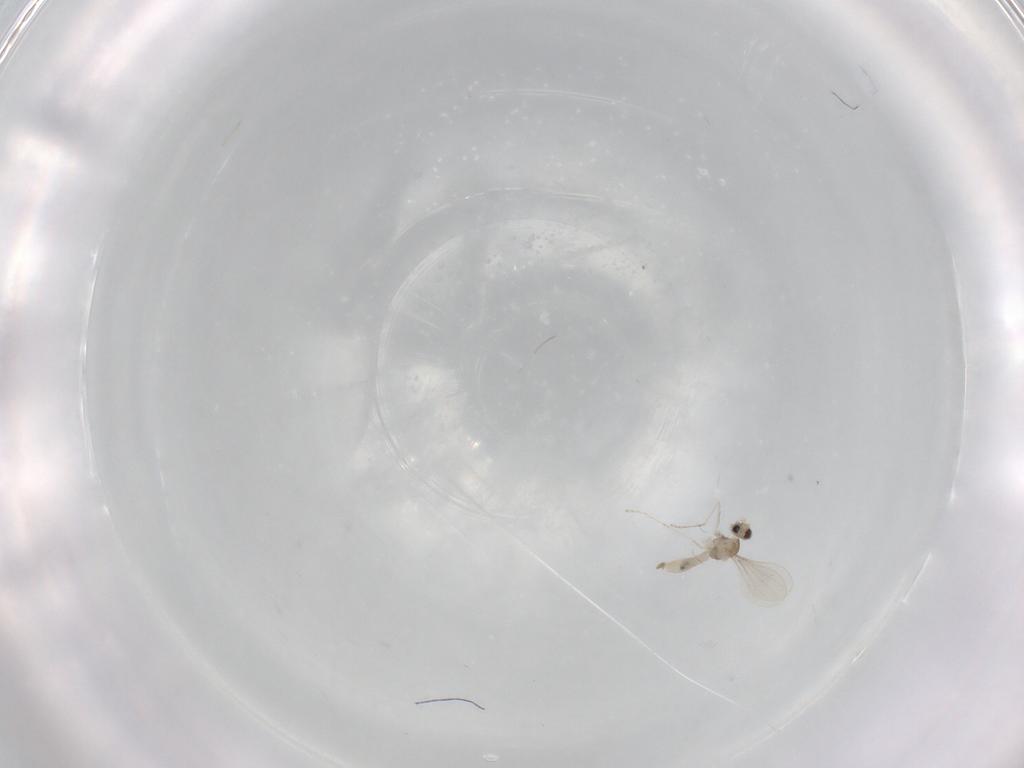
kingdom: Animalia
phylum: Arthropoda
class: Insecta
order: Diptera
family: Cecidomyiidae
